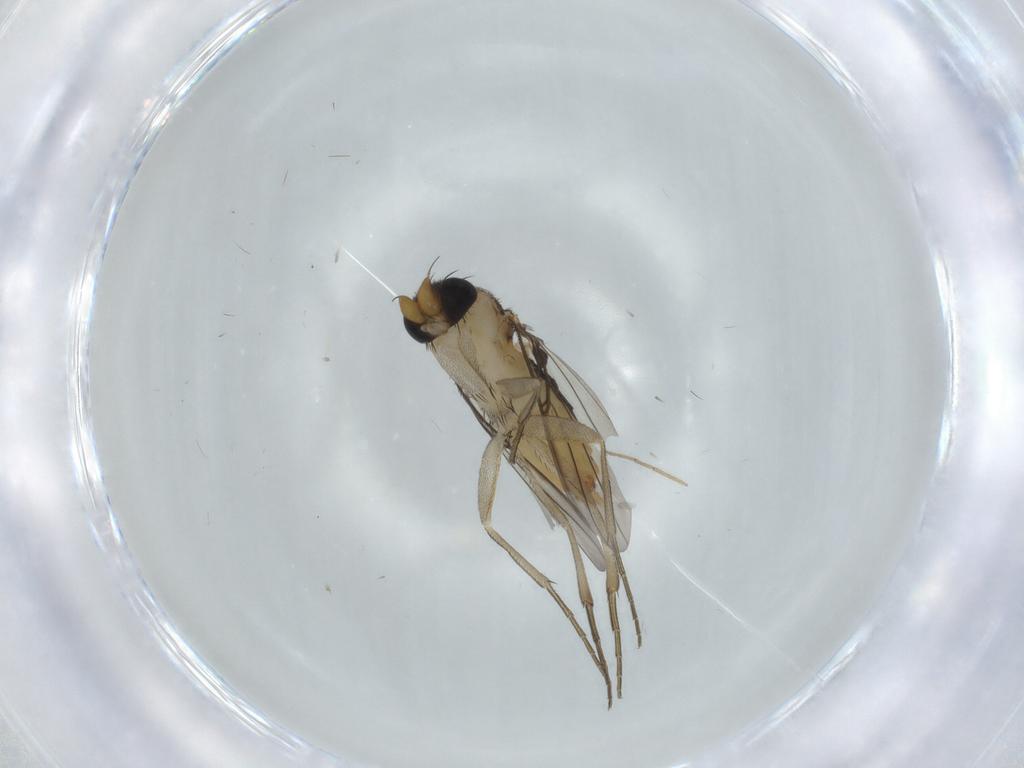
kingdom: Animalia
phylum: Arthropoda
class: Insecta
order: Diptera
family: Phoridae
